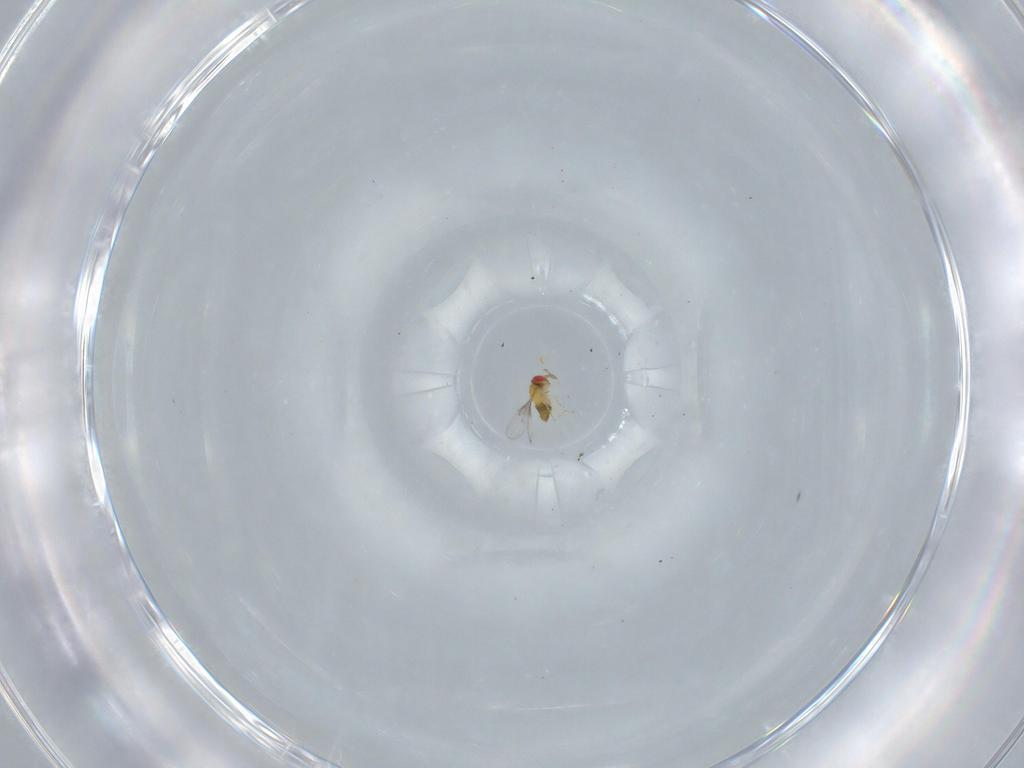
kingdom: Animalia
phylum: Arthropoda
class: Insecta
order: Hymenoptera
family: Trichogrammatidae
